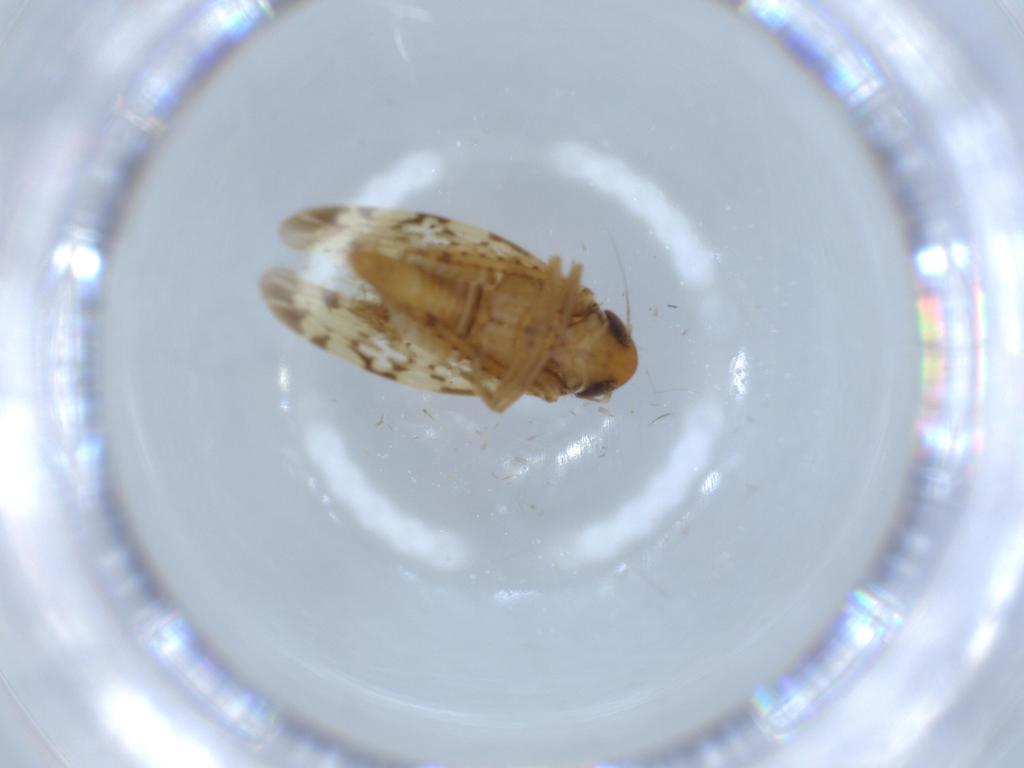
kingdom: Animalia
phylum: Arthropoda
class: Insecta
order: Hemiptera
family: Cicadellidae
